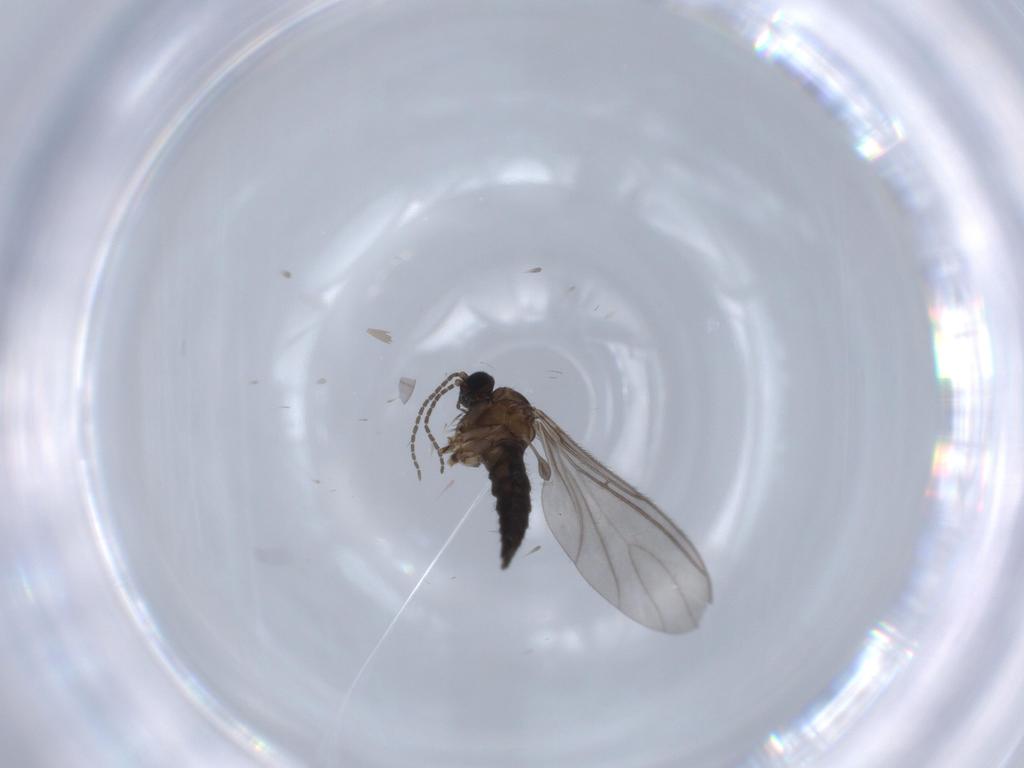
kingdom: Animalia
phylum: Arthropoda
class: Insecta
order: Diptera
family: Sciaridae
